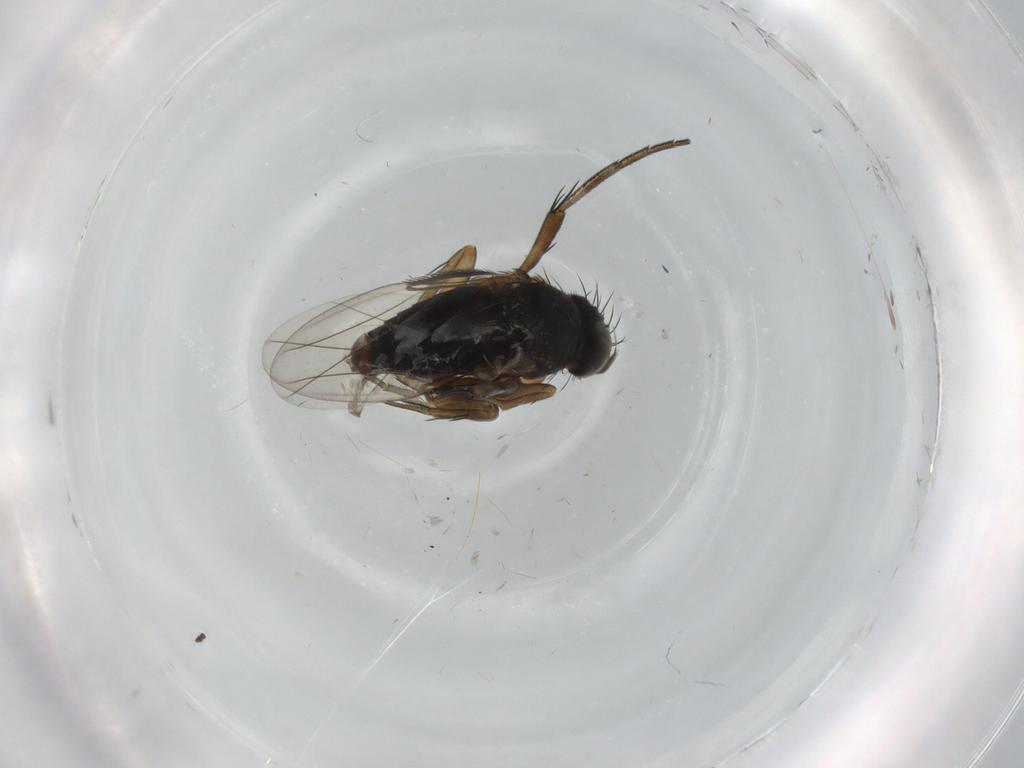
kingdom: Animalia
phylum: Arthropoda
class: Insecta
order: Diptera
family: Phoridae
